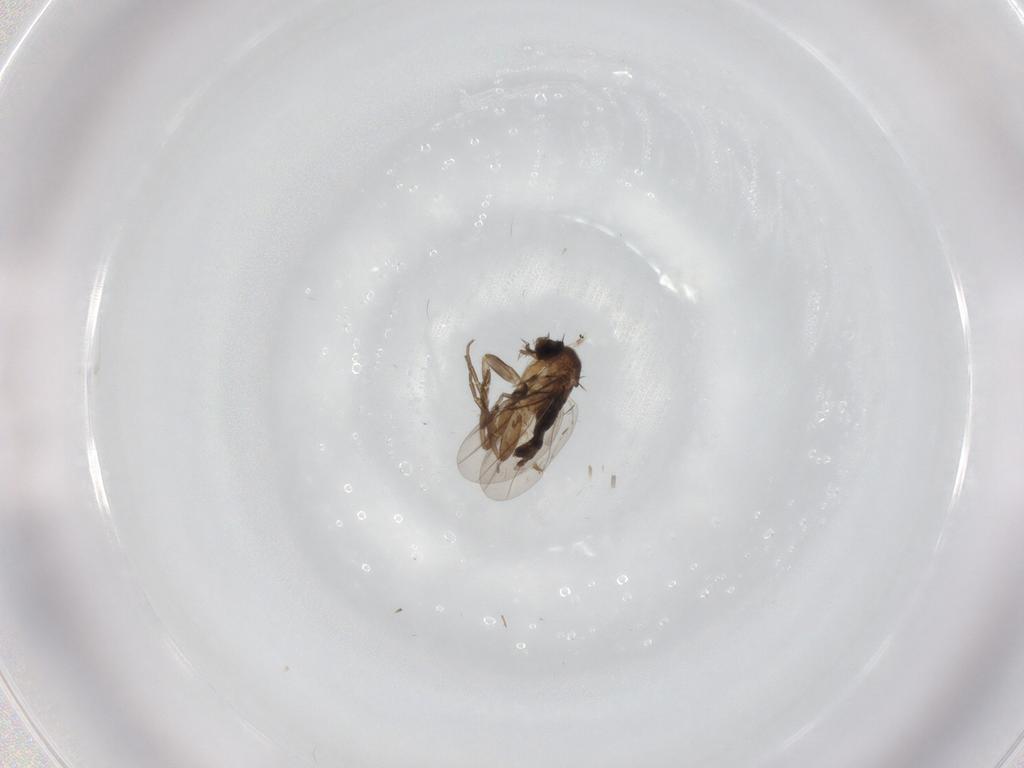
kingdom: Animalia
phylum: Arthropoda
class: Insecta
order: Diptera
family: Phoridae
